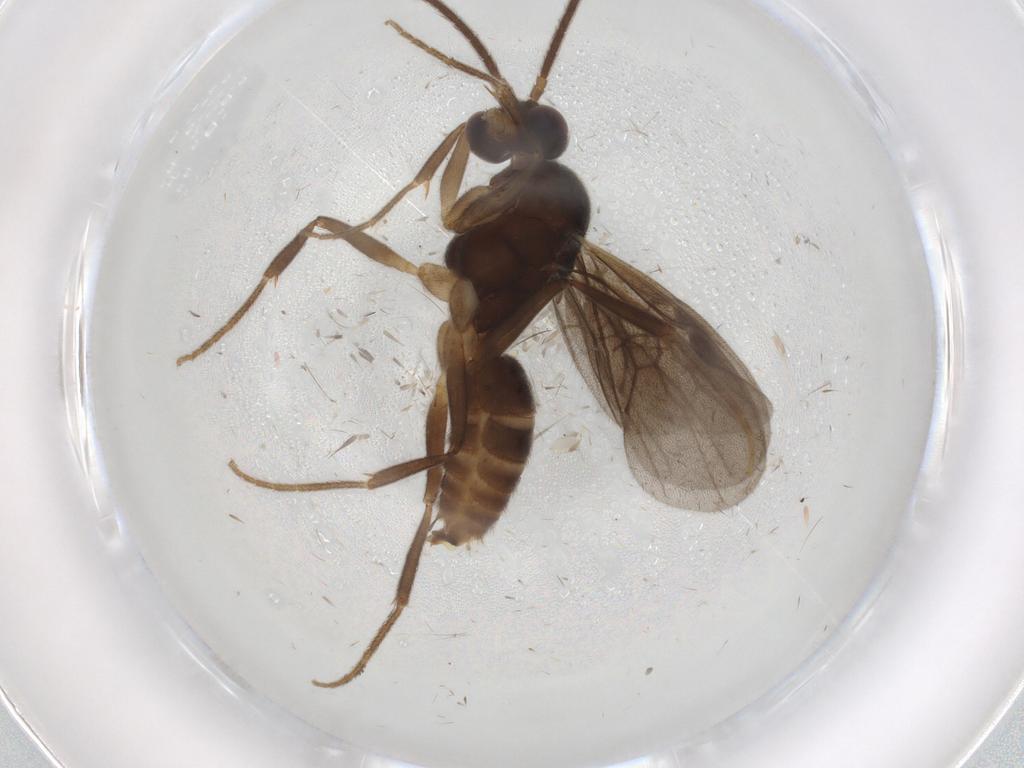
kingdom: Animalia
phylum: Arthropoda
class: Insecta
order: Hymenoptera
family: Formicidae
